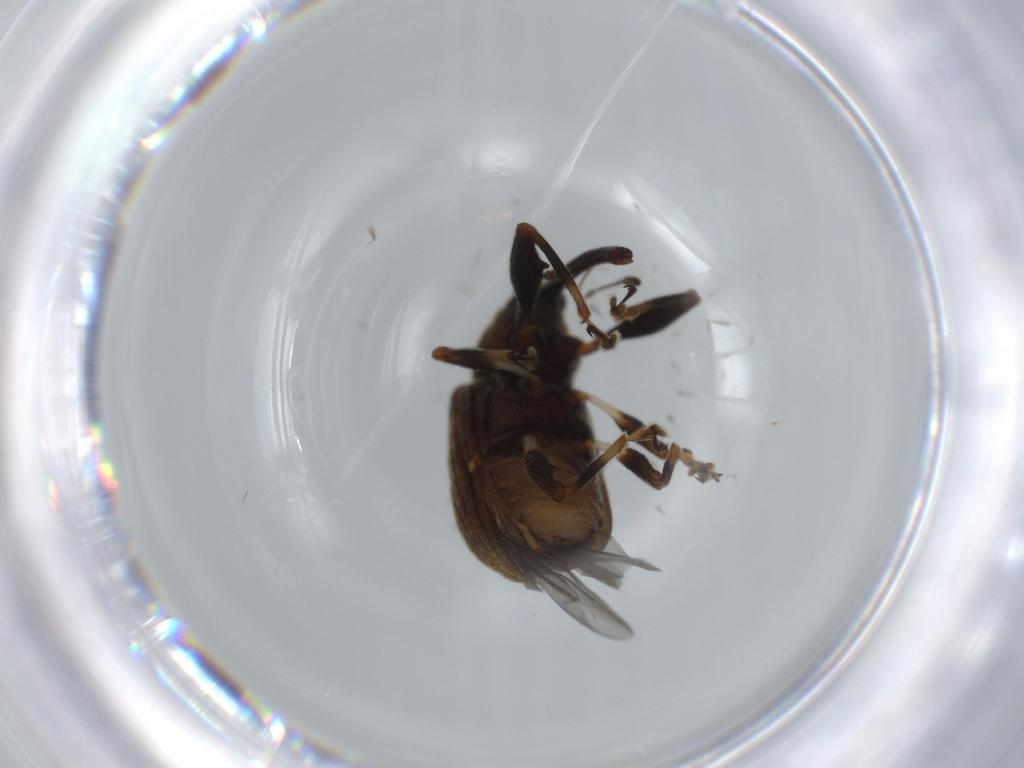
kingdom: Animalia
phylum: Arthropoda
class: Insecta
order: Coleoptera
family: Curculionidae
